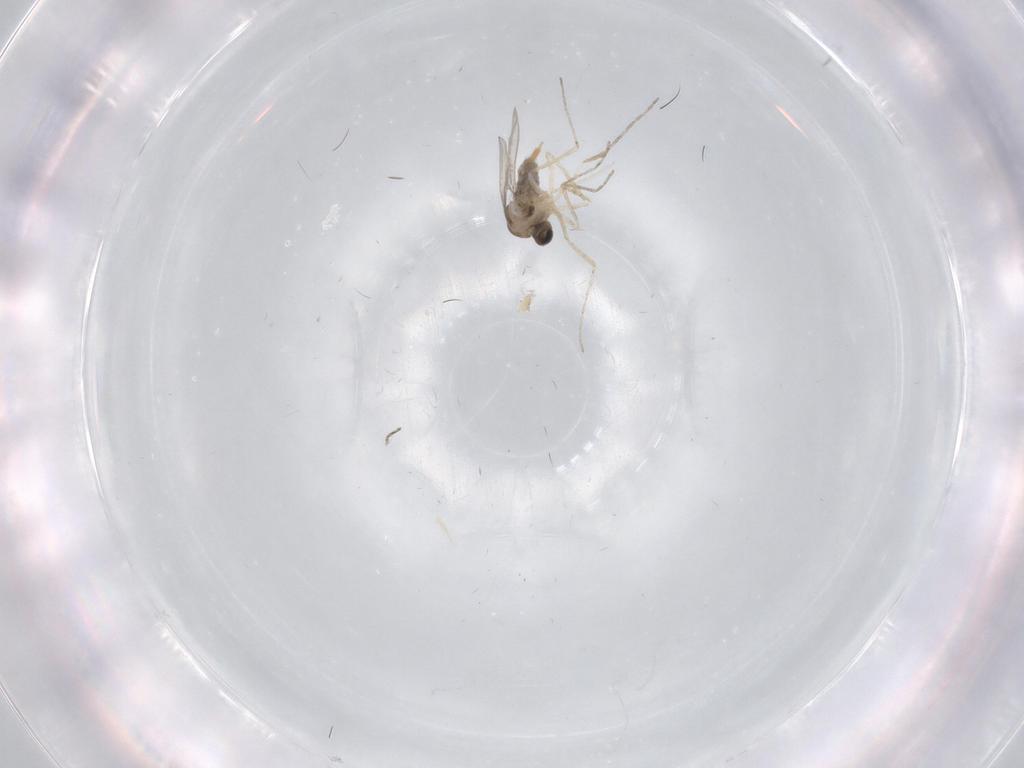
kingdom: Animalia
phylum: Arthropoda
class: Insecta
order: Diptera
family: Cecidomyiidae
